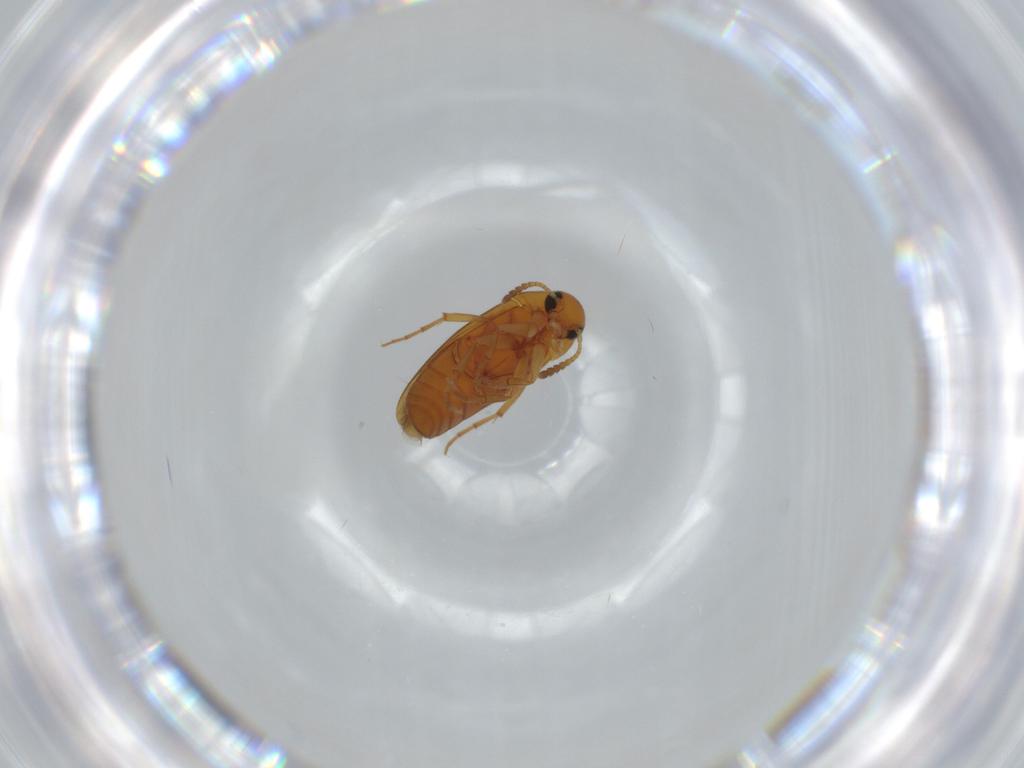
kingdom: Animalia
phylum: Arthropoda
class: Insecta
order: Coleoptera
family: Scraptiidae
